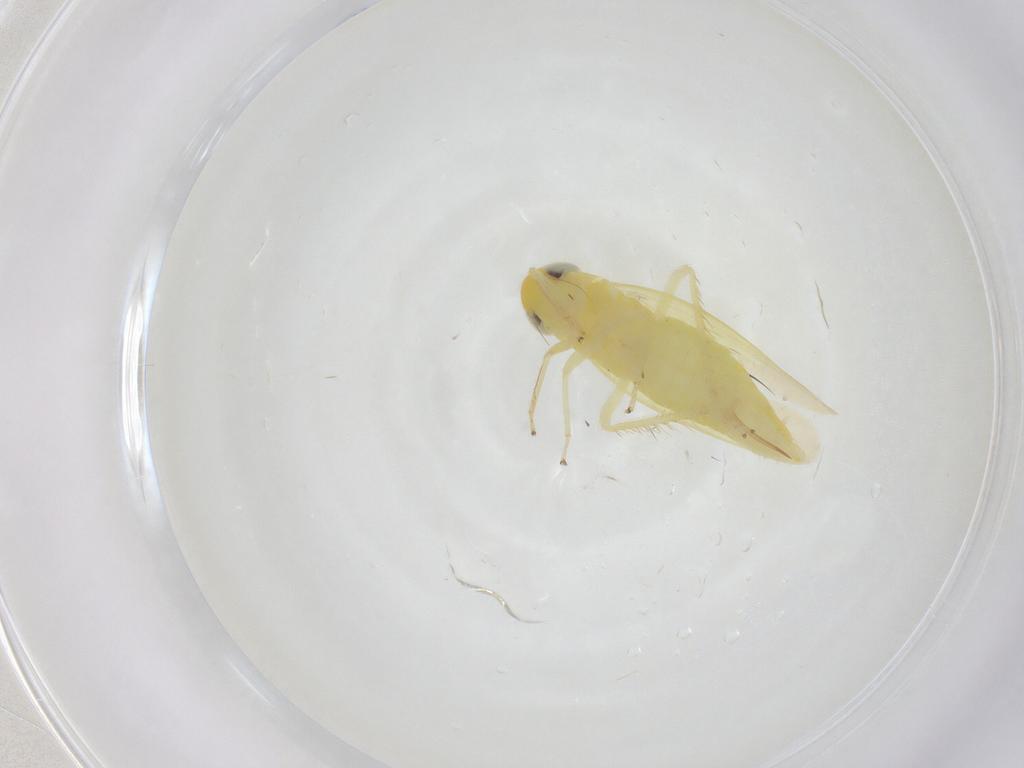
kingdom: Animalia
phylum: Arthropoda
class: Insecta
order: Hemiptera
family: Cicadellidae
